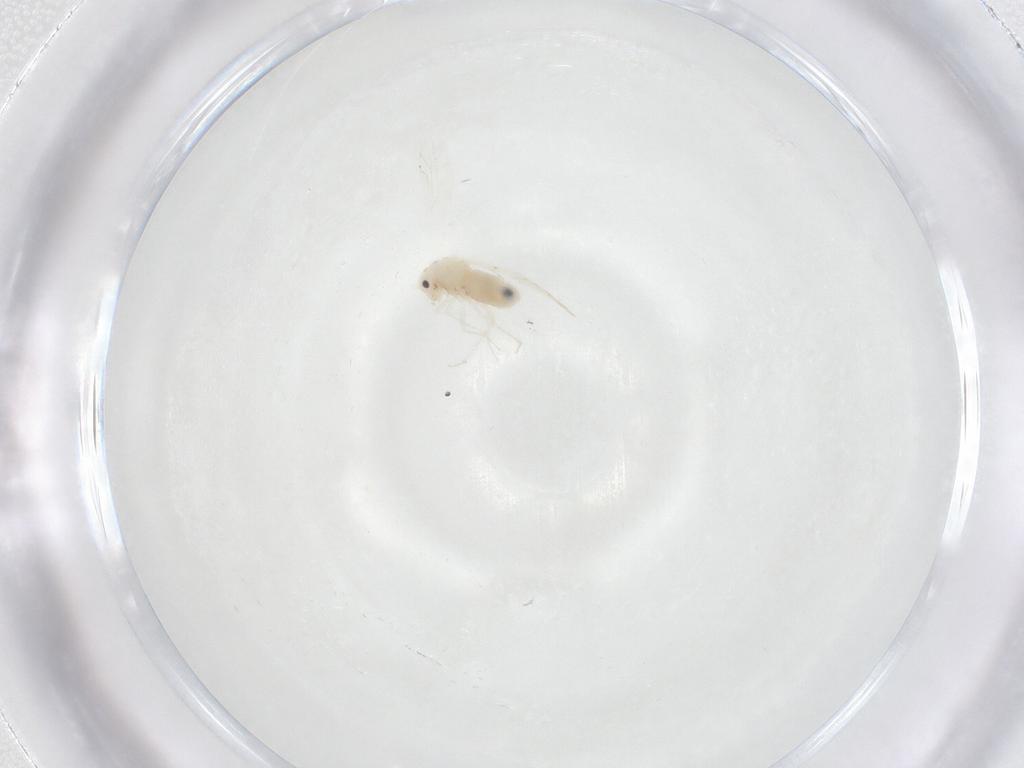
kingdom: Animalia
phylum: Arthropoda
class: Insecta
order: Psocodea
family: Lachesillidae
